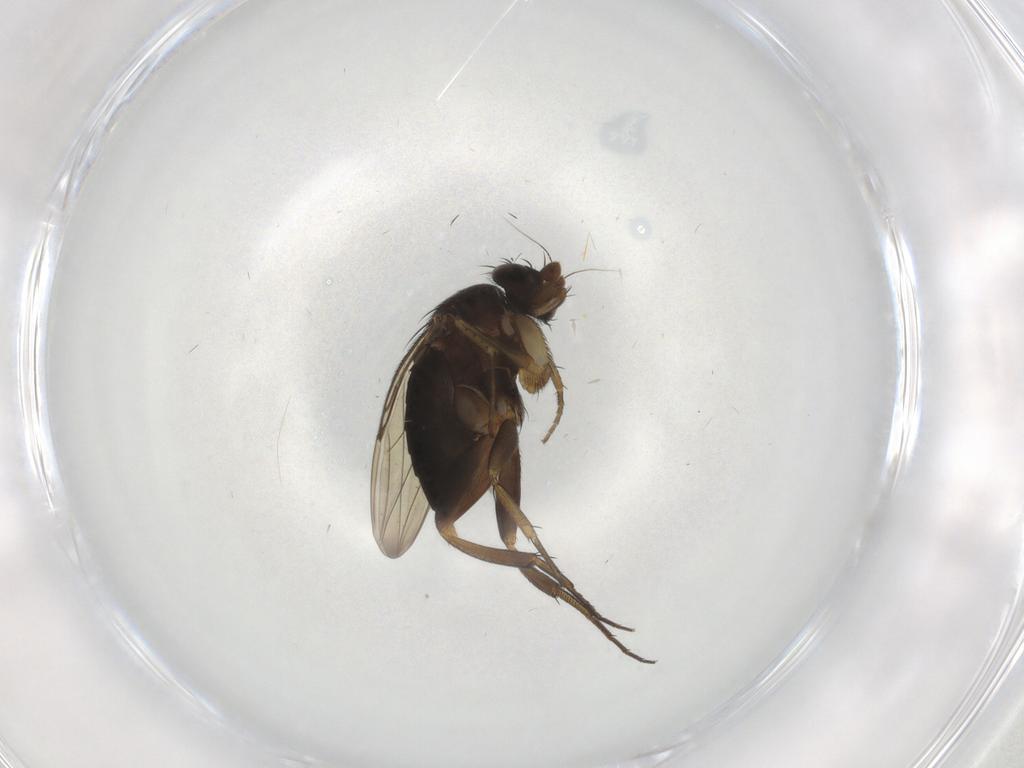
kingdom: Animalia
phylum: Arthropoda
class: Insecta
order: Diptera
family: Phoridae
